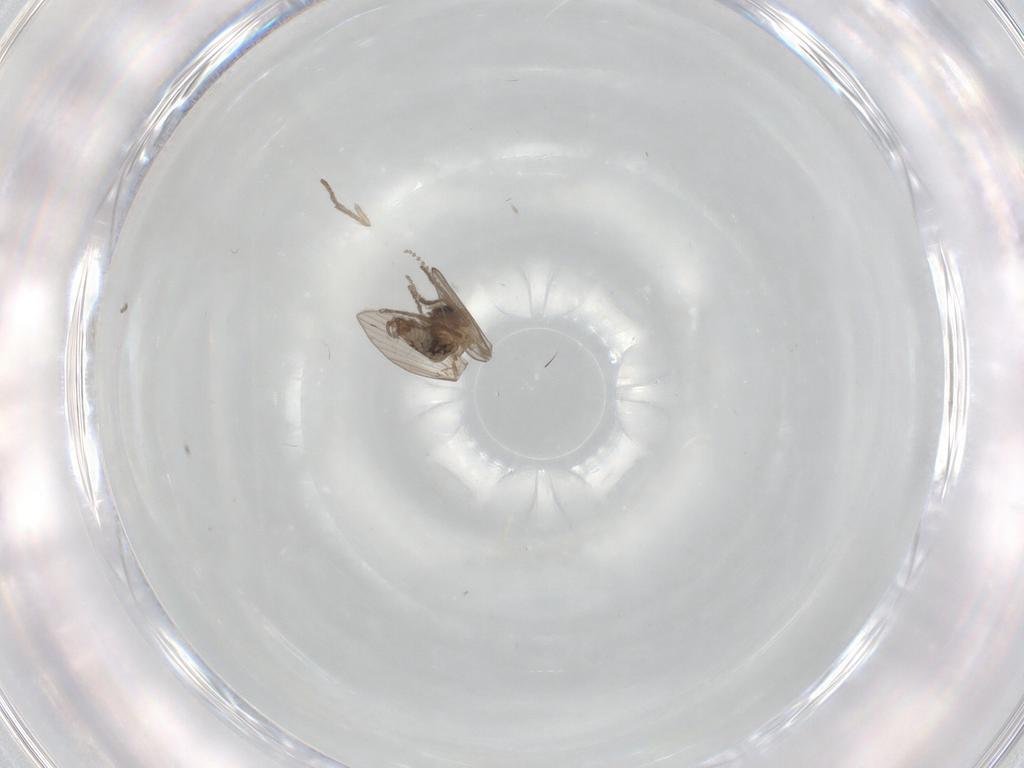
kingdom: Animalia
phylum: Arthropoda
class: Insecta
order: Diptera
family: Psychodidae
